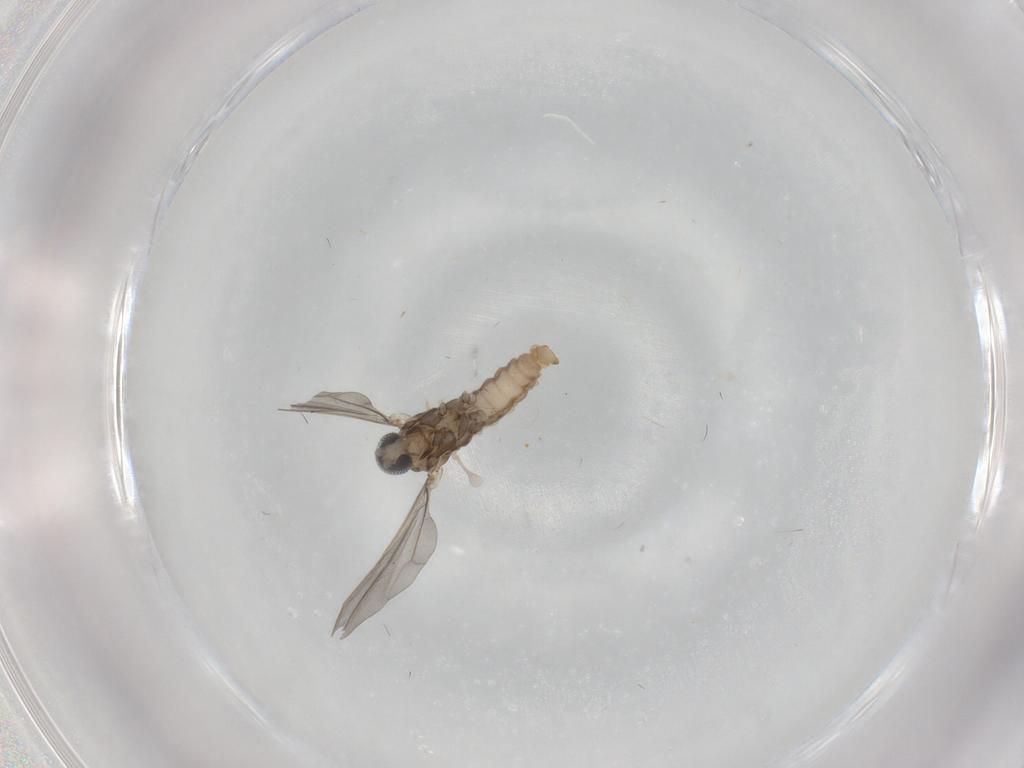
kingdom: Animalia
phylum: Arthropoda
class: Insecta
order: Diptera
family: Cecidomyiidae
